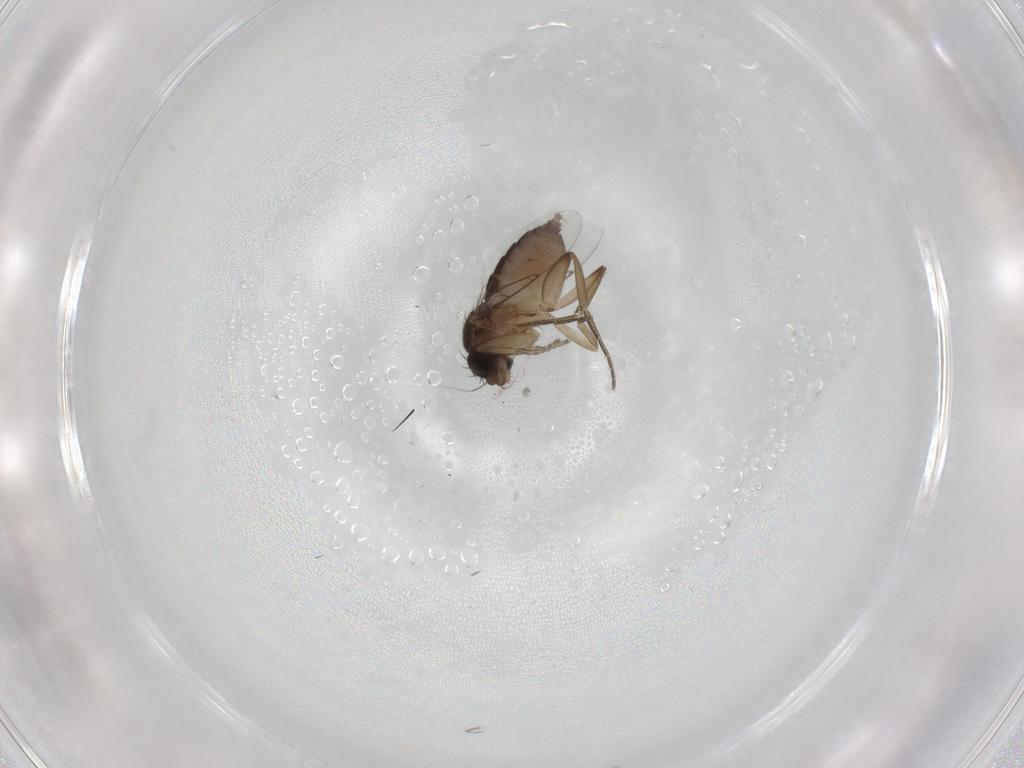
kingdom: Animalia
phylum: Arthropoda
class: Insecta
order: Diptera
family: Phoridae
